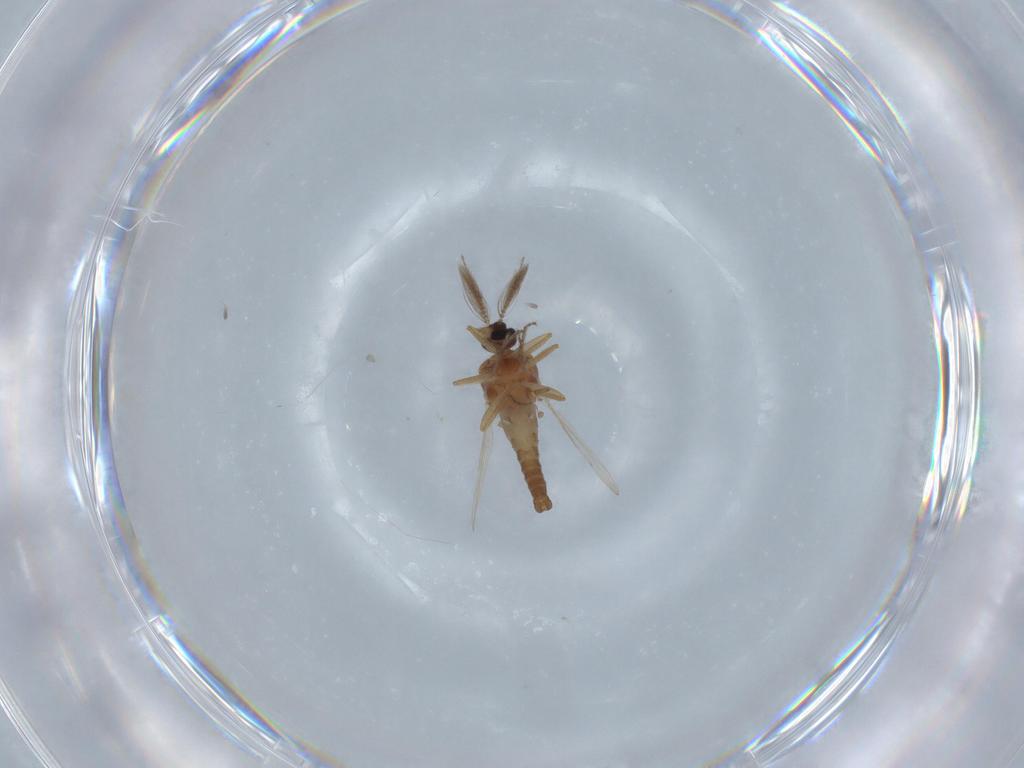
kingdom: Animalia
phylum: Arthropoda
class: Insecta
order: Diptera
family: Ceratopogonidae
